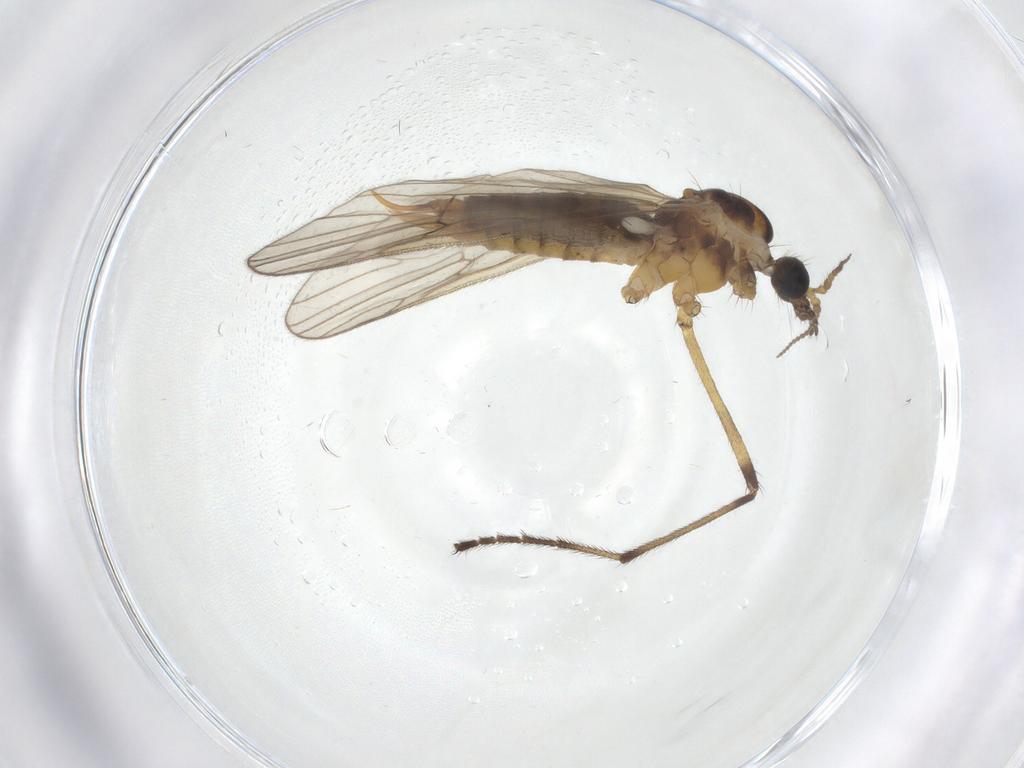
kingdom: Animalia
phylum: Arthropoda
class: Insecta
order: Diptera
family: Limoniidae
